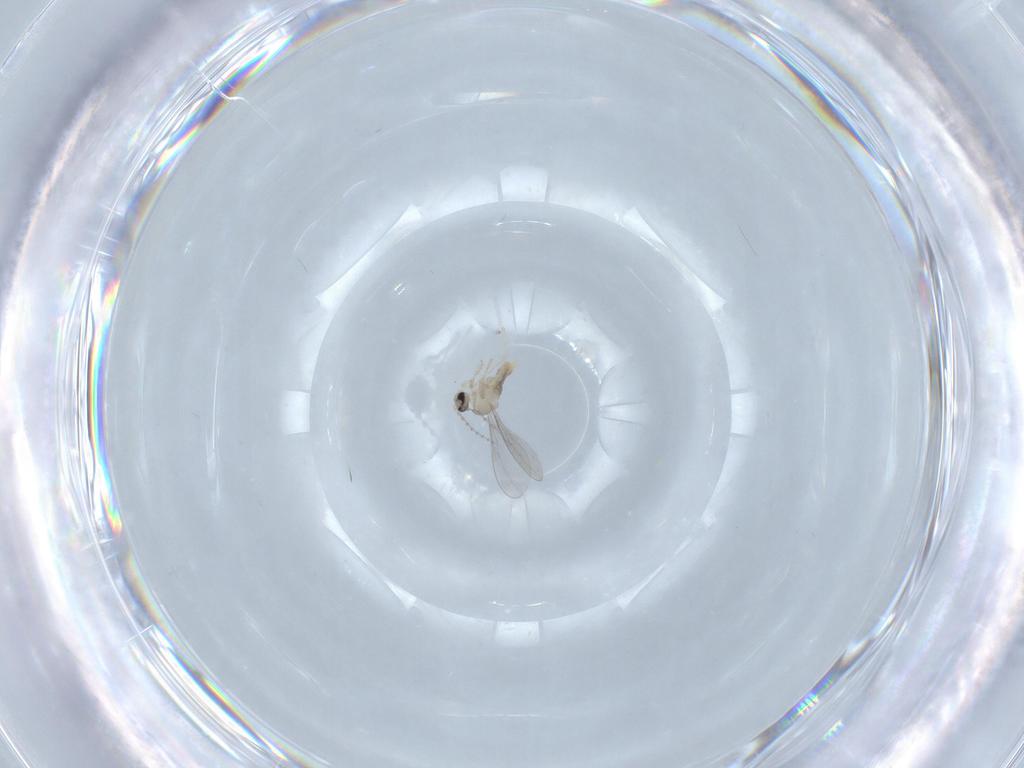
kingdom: Animalia
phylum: Arthropoda
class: Insecta
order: Diptera
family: Cecidomyiidae
